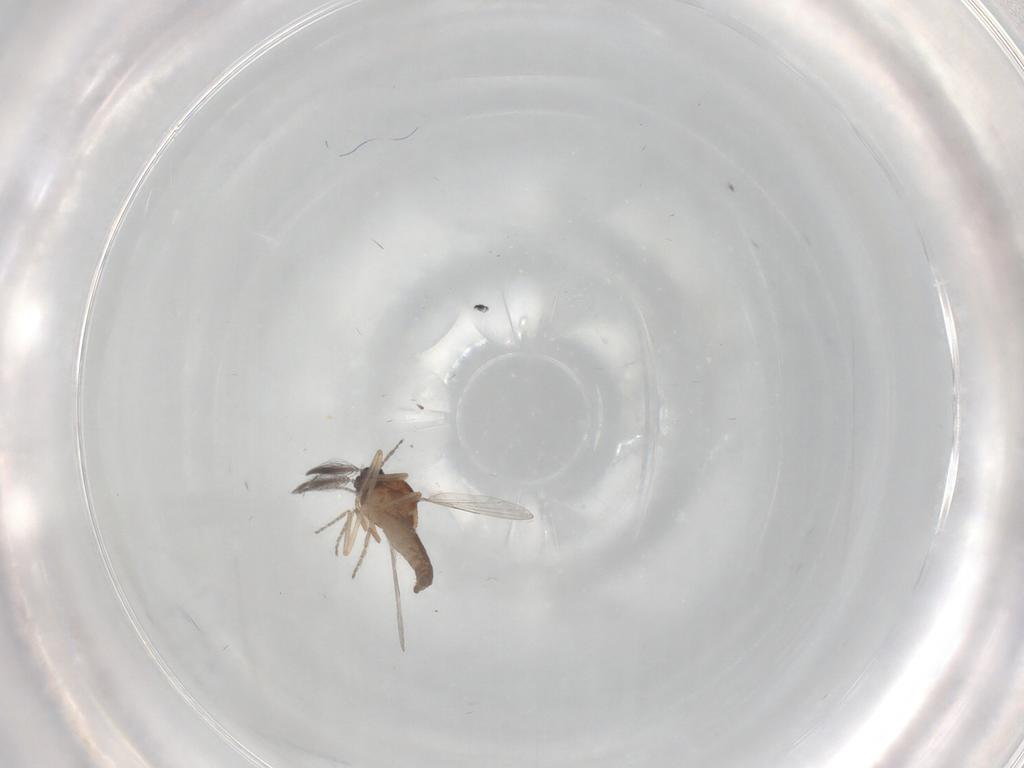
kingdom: Animalia
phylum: Arthropoda
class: Insecta
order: Diptera
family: Ceratopogonidae
